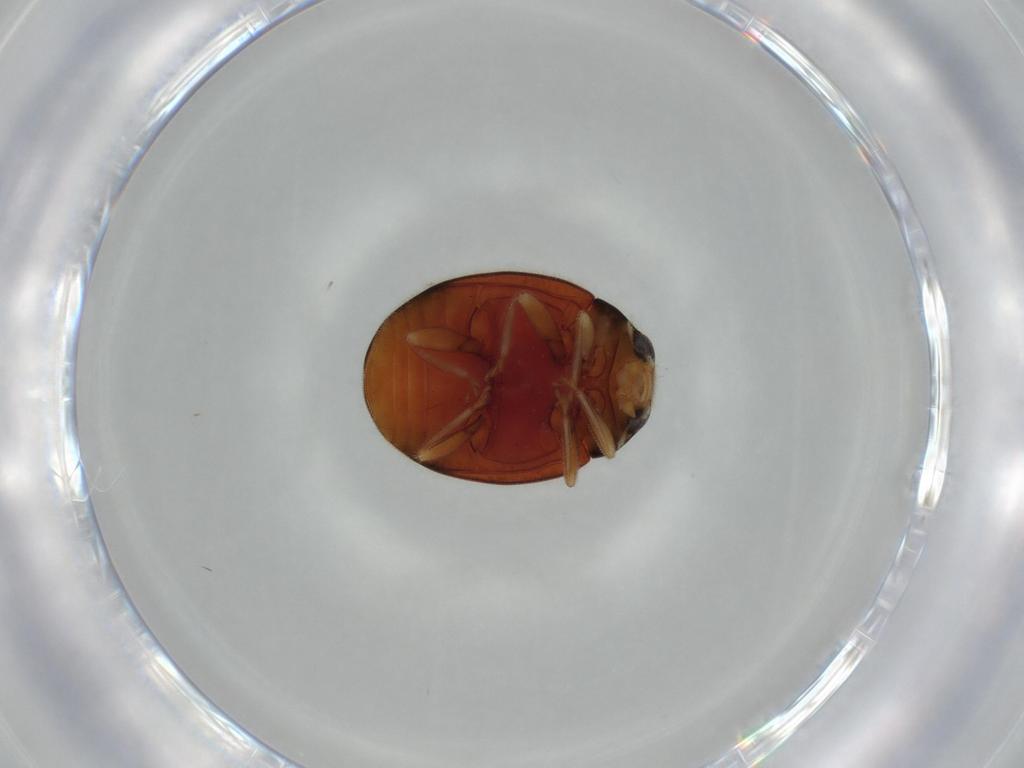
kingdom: Animalia
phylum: Arthropoda
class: Insecta
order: Coleoptera
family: Coccinellidae
